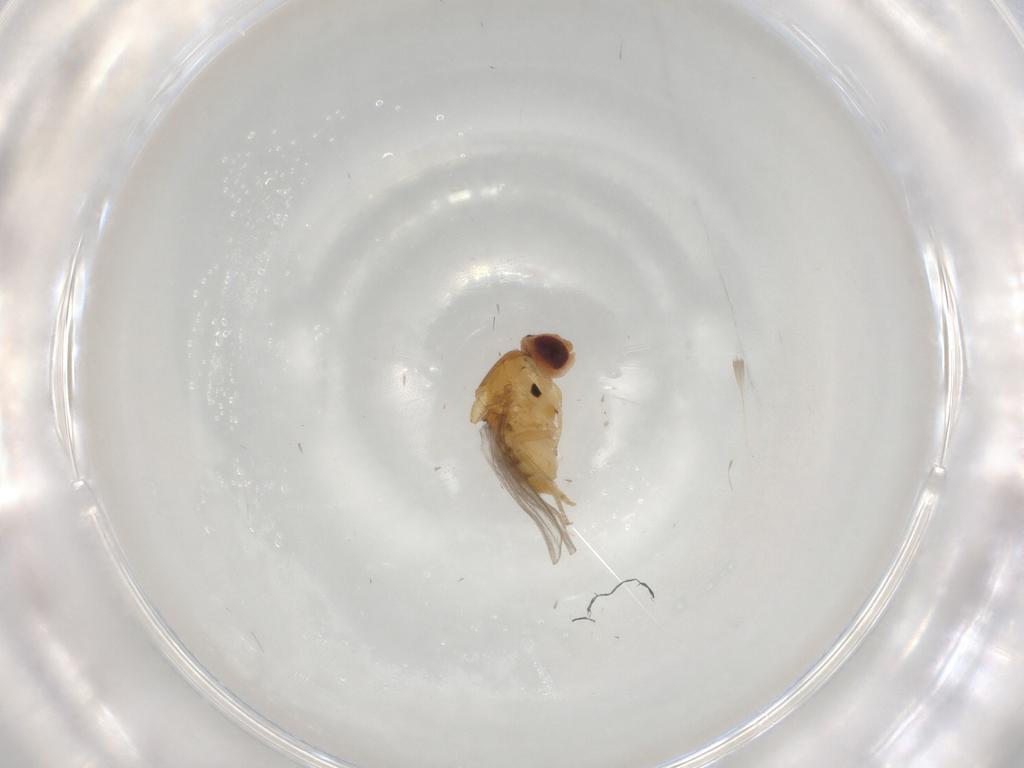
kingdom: Animalia
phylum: Arthropoda
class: Insecta
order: Diptera
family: Chloropidae
